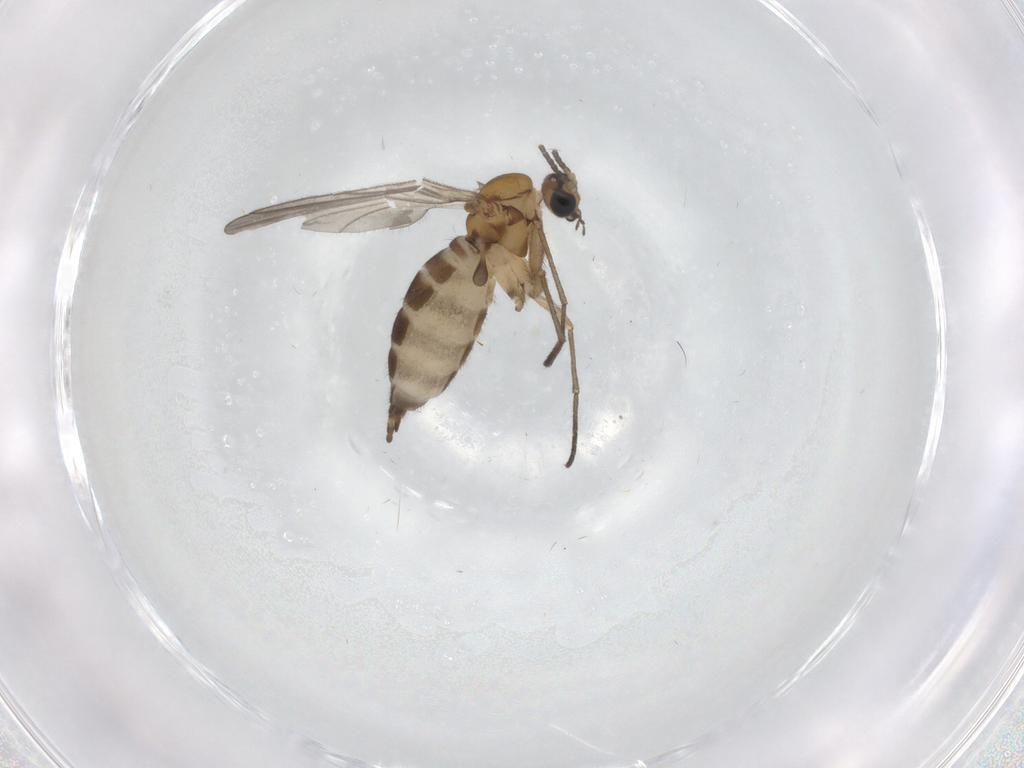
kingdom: Animalia
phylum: Arthropoda
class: Insecta
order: Diptera
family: Sciaridae
